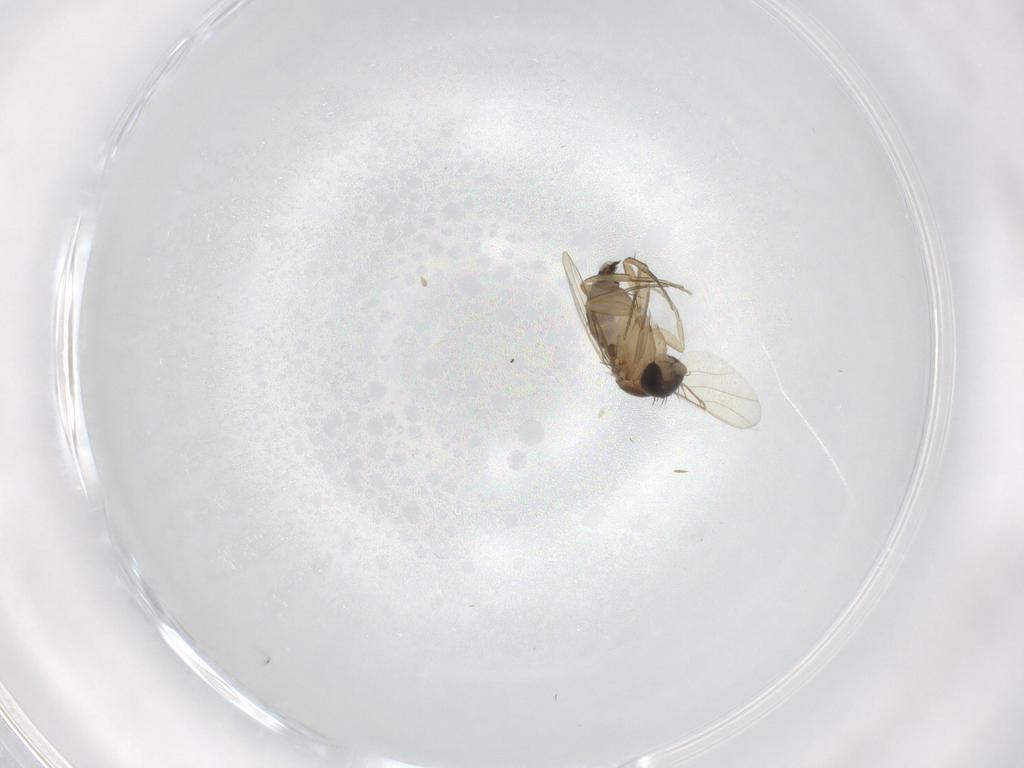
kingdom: Animalia
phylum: Arthropoda
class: Insecta
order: Diptera
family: Phoridae
